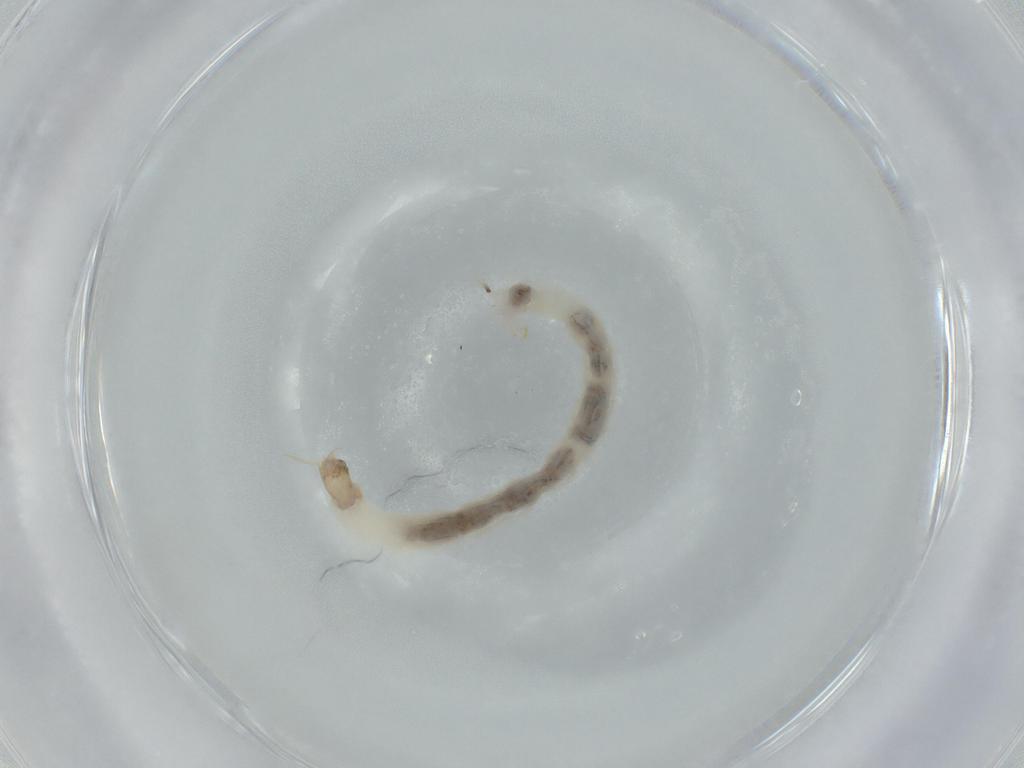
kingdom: Animalia
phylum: Arthropoda
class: Insecta
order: Diptera
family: Chironomidae
